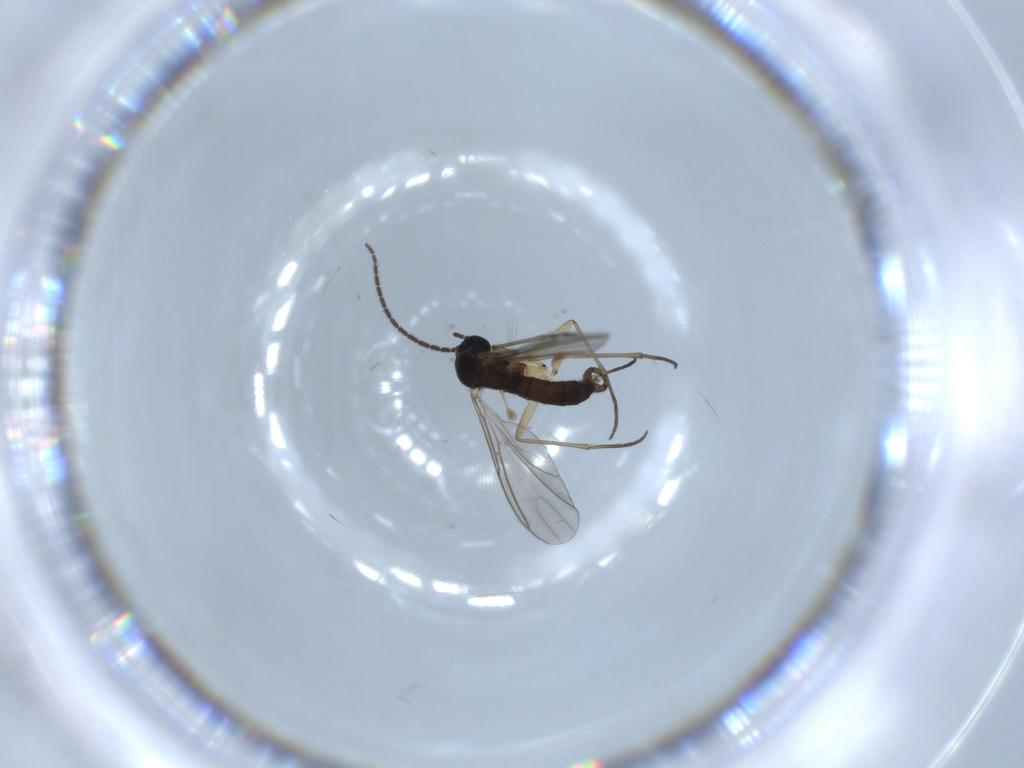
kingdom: Animalia
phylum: Arthropoda
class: Insecta
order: Diptera
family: Sciaridae
